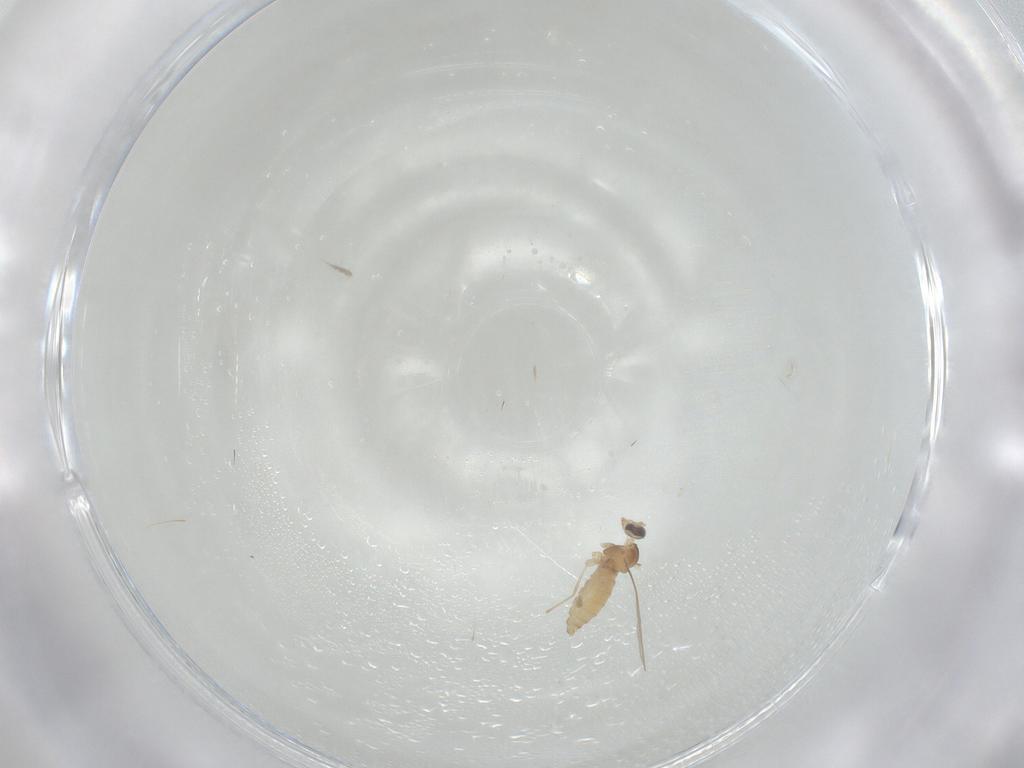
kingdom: Animalia
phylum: Arthropoda
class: Insecta
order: Diptera
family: Cecidomyiidae
